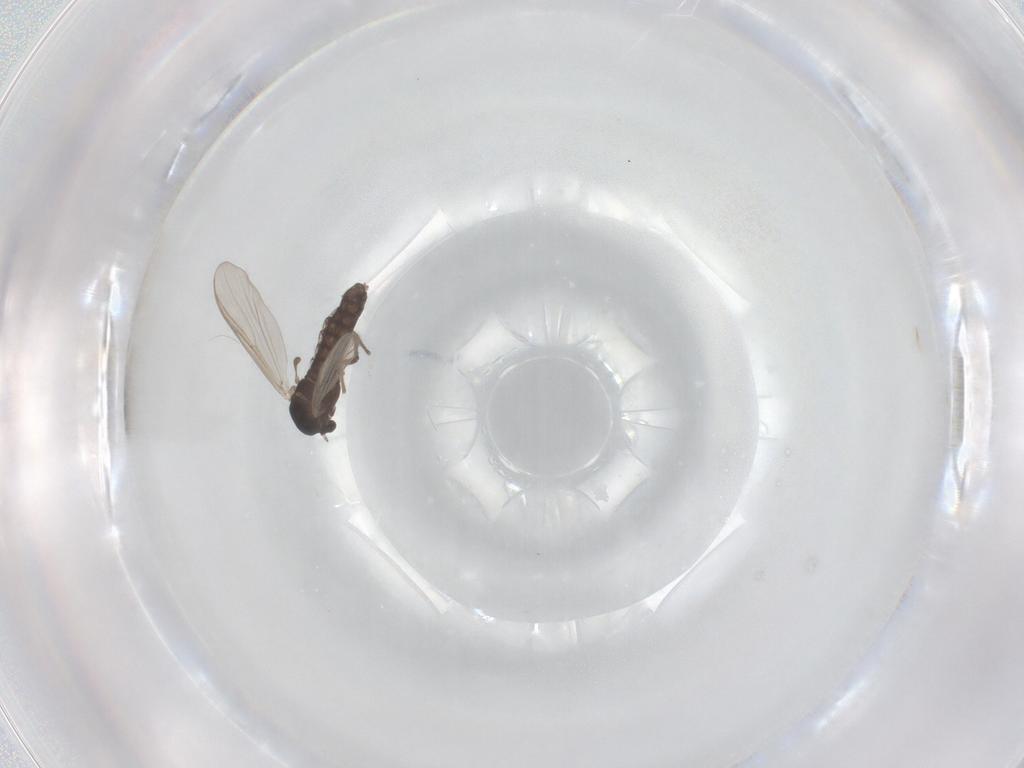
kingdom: Animalia
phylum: Arthropoda
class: Insecta
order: Diptera
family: Chironomidae
